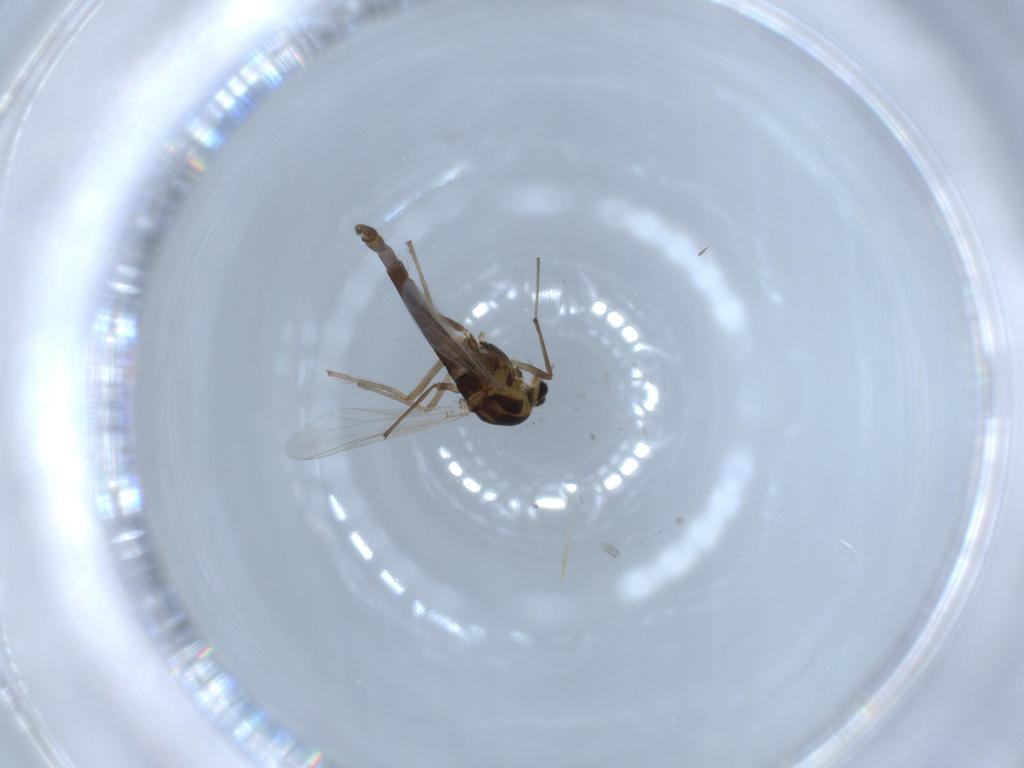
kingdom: Animalia
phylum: Arthropoda
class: Insecta
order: Diptera
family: Chironomidae
